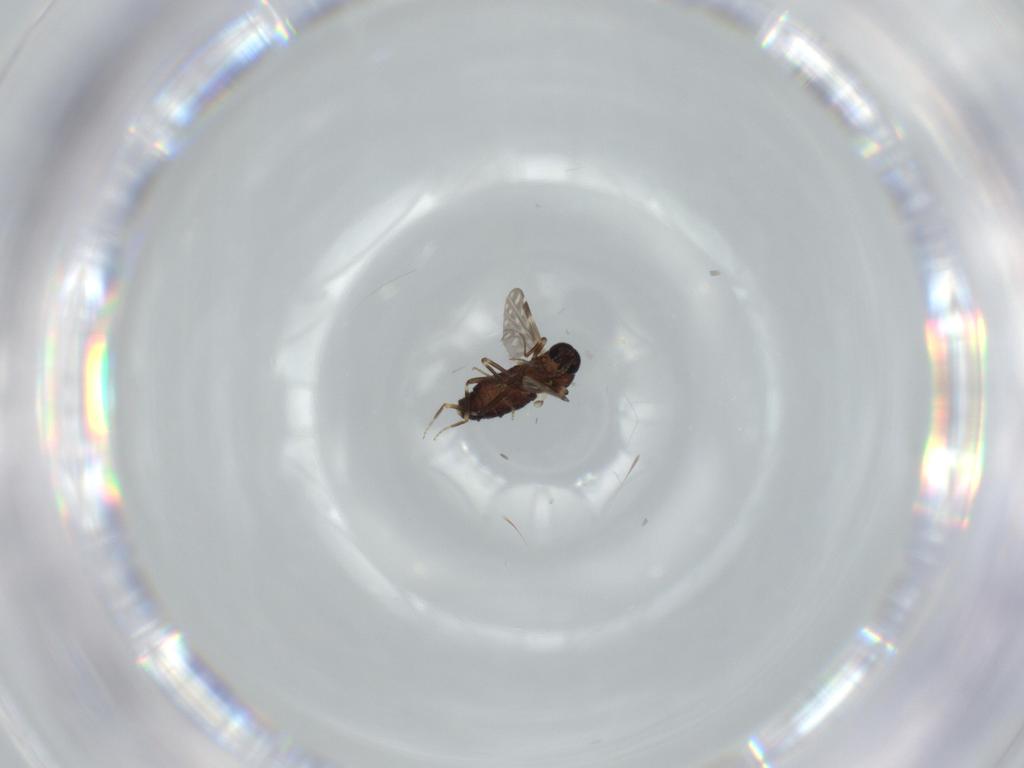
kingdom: Animalia
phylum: Arthropoda
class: Insecta
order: Diptera
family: Ceratopogonidae
